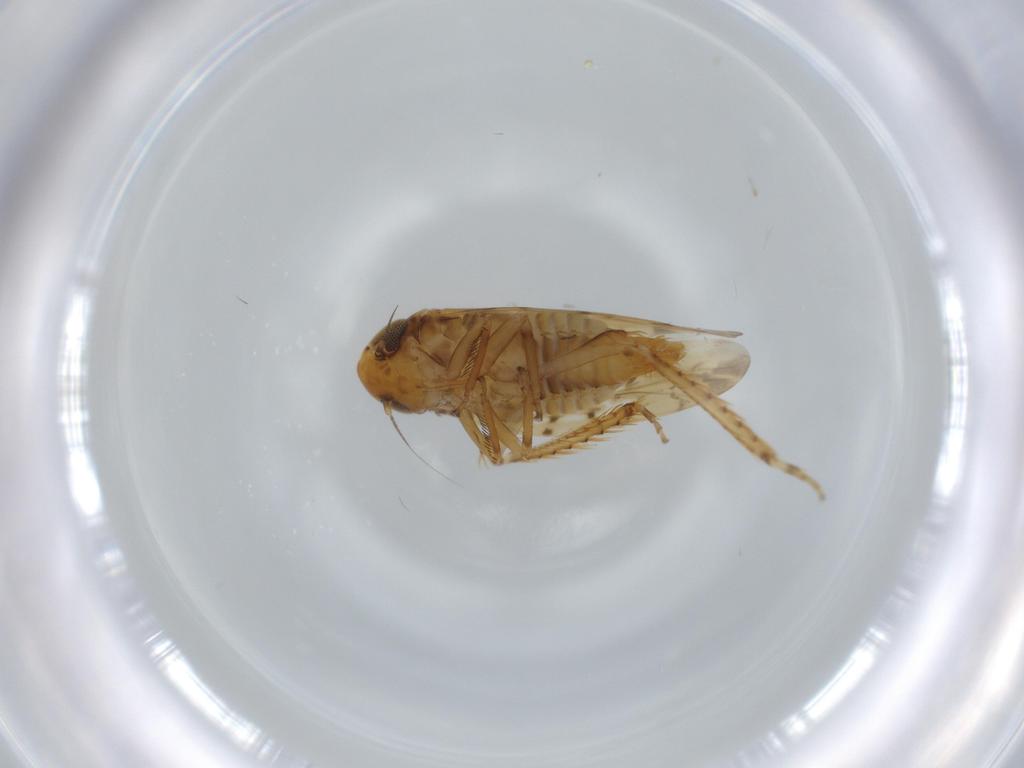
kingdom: Animalia
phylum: Arthropoda
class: Insecta
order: Hemiptera
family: Cicadellidae
